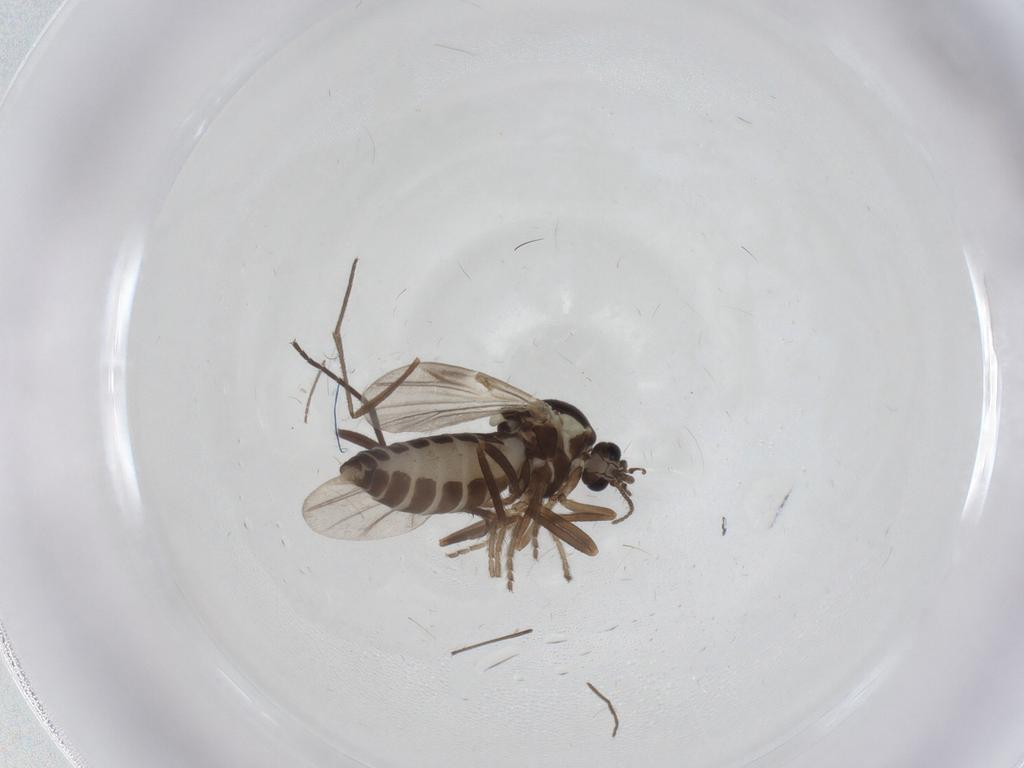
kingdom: Animalia
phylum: Arthropoda
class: Insecta
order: Diptera
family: Ceratopogonidae
